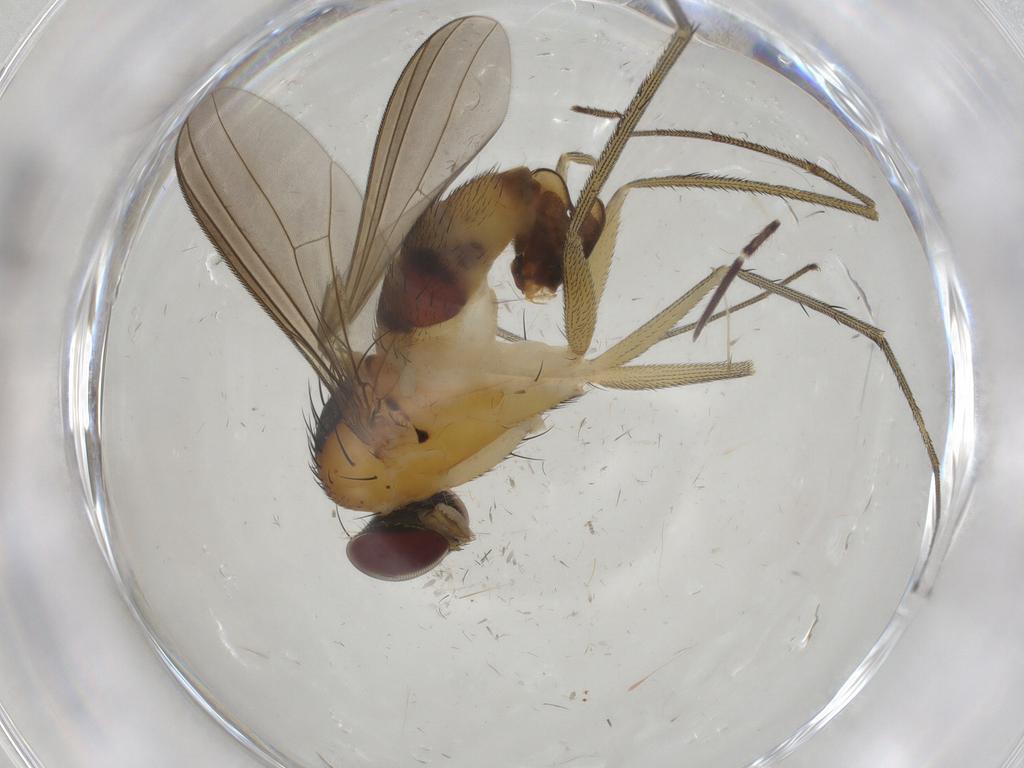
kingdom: Animalia
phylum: Arthropoda
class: Insecta
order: Diptera
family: Dolichopodidae
